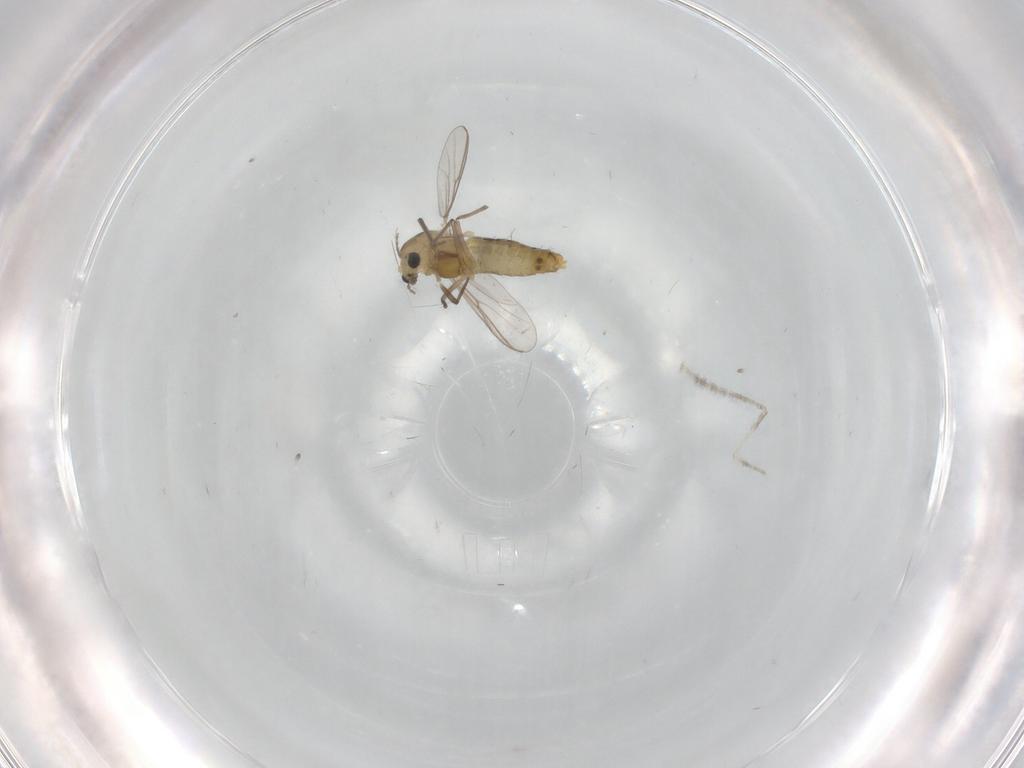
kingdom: Animalia
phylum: Arthropoda
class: Insecta
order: Diptera
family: Chironomidae
